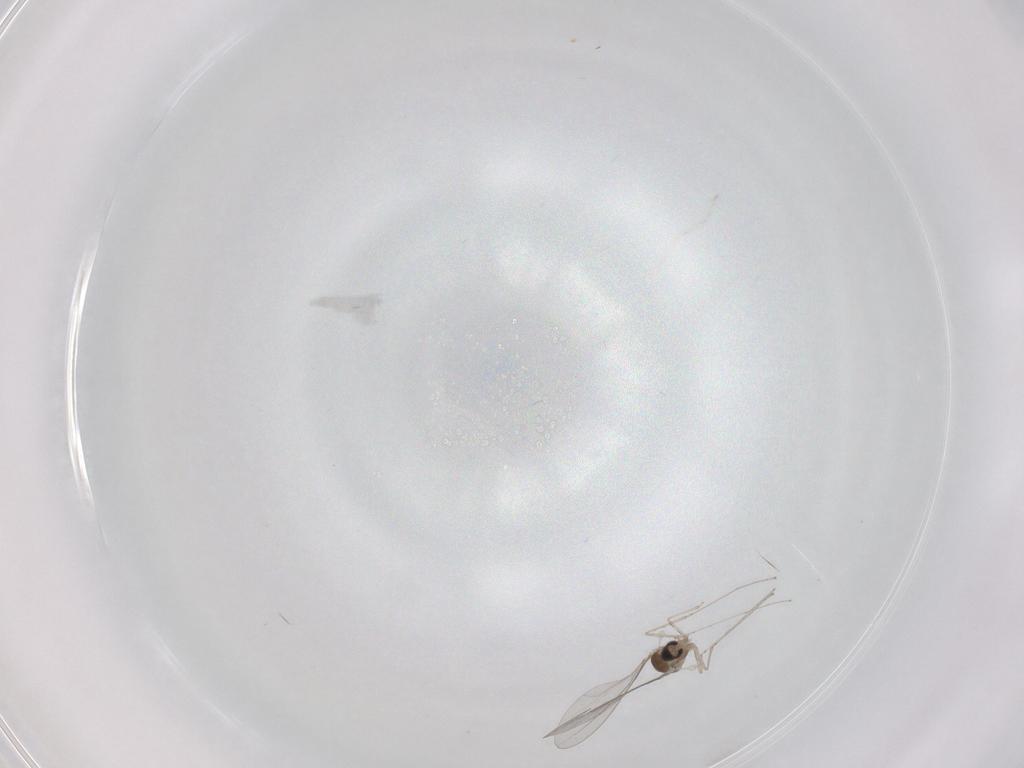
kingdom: Animalia
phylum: Arthropoda
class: Insecta
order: Diptera
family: Cecidomyiidae
